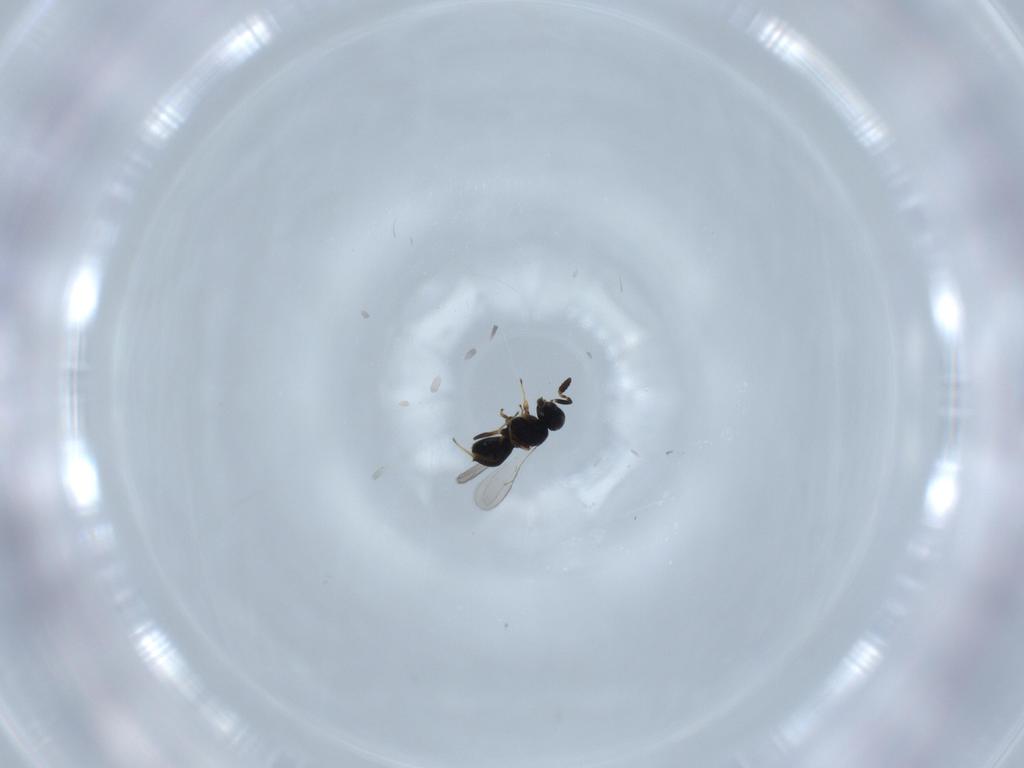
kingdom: Animalia
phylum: Arthropoda
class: Insecta
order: Hymenoptera
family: Scelionidae
